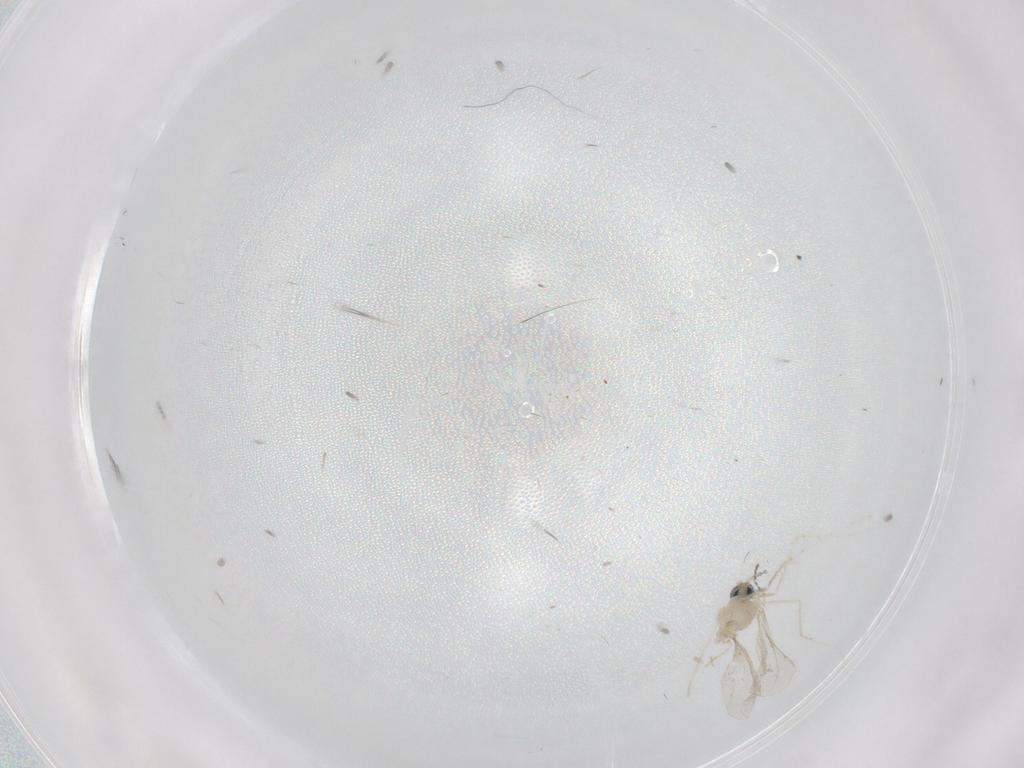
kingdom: Animalia
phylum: Arthropoda
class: Insecta
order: Diptera
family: Cecidomyiidae
